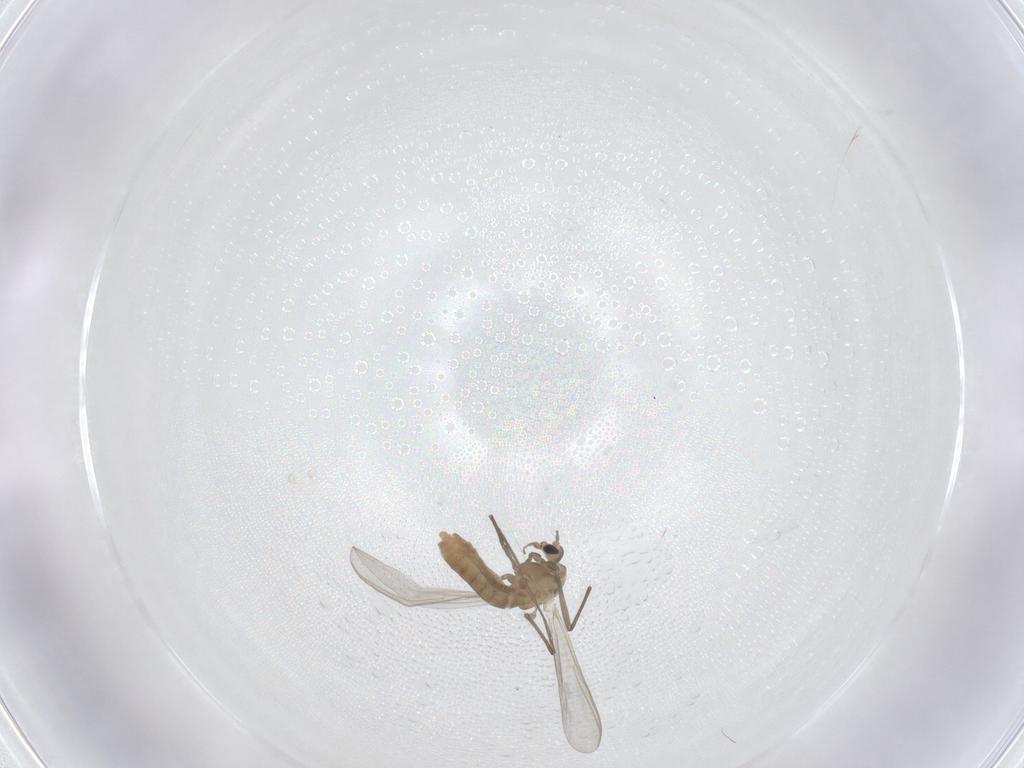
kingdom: Animalia
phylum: Arthropoda
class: Insecta
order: Diptera
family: Chironomidae
